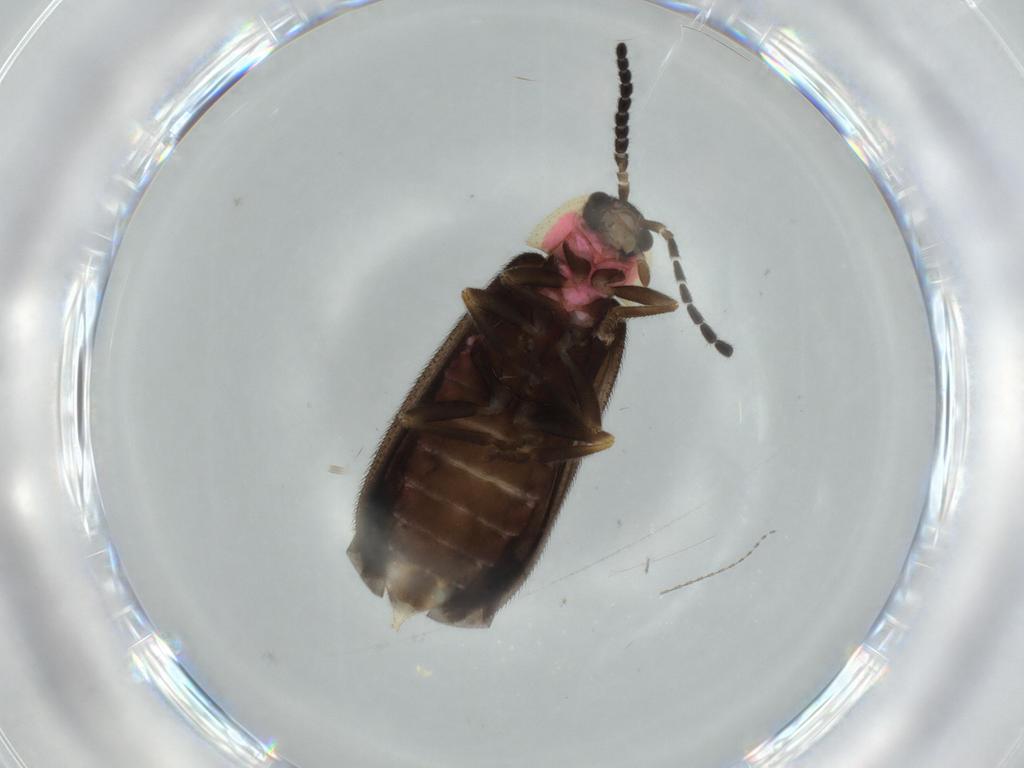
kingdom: Animalia
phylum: Arthropoda
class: Insecta
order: Coleoptera
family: Lampyridae
